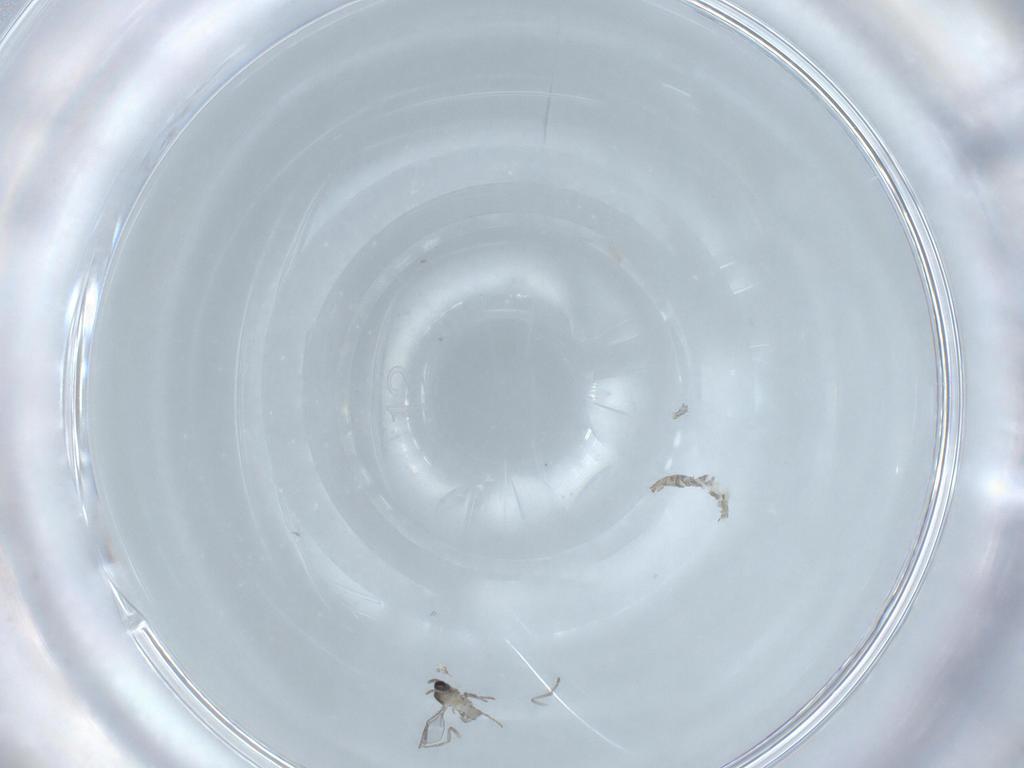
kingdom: Animalia
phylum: Arthropoda
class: Insecta
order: Diptera
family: Cecidomyiidae
